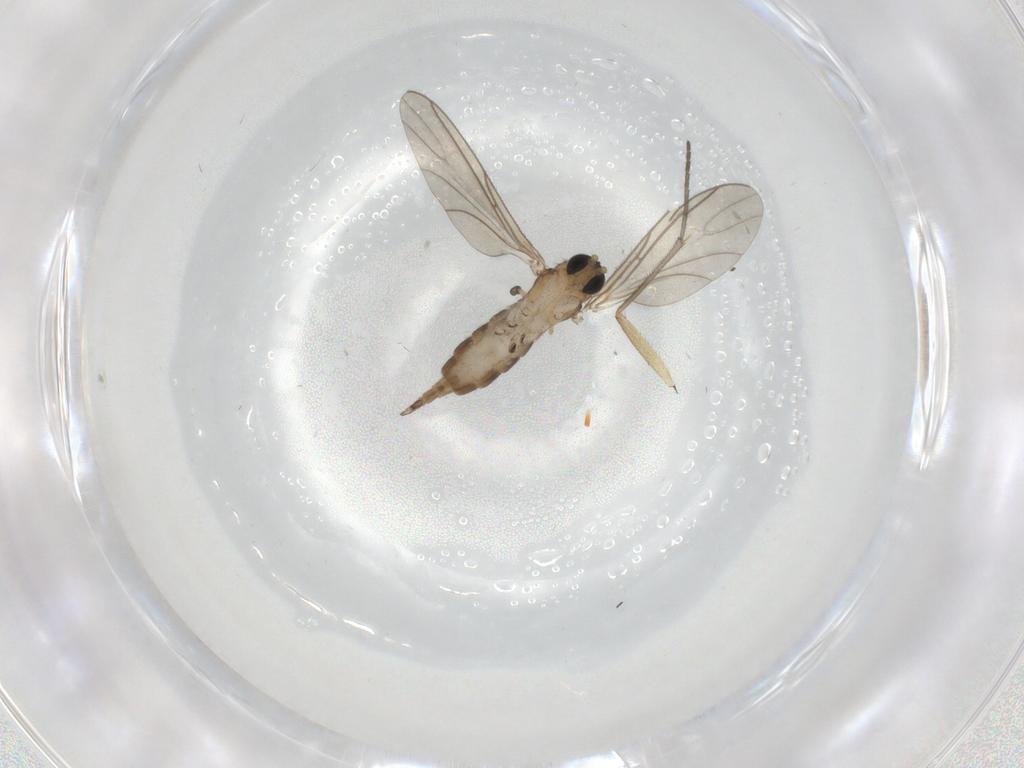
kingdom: Animalia
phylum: Arthropoda
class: Insecta
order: Diptera
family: Sciaridae
